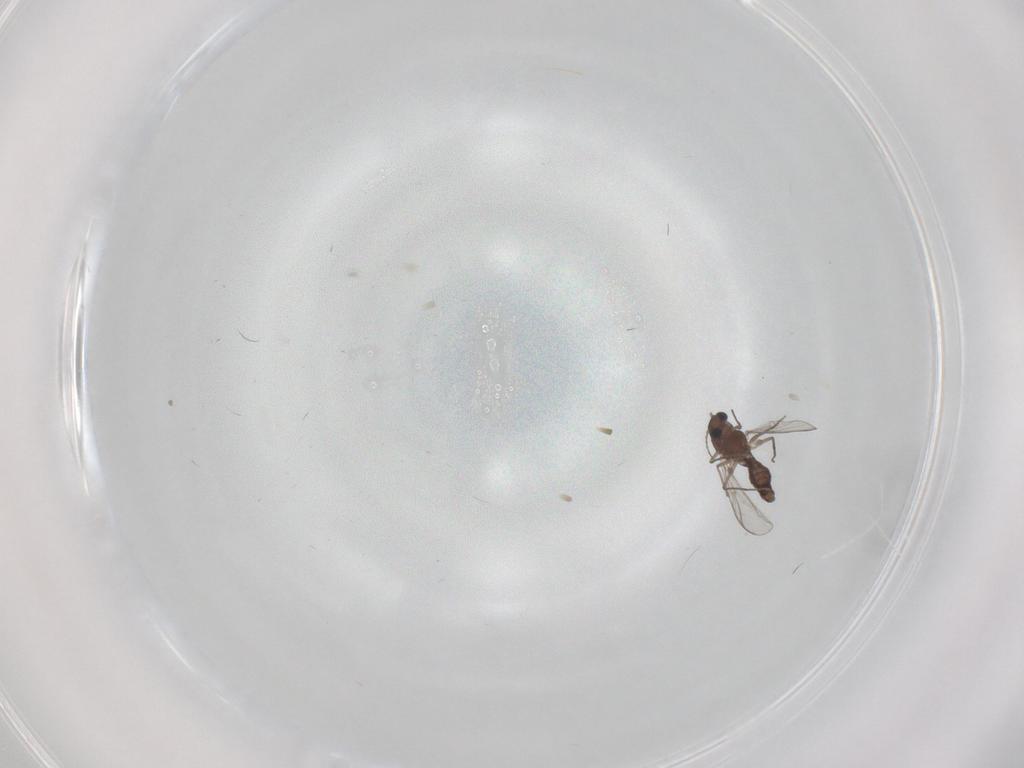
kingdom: Animalia
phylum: Arthropoda
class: Insecta
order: Diptera
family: Chironomidae
